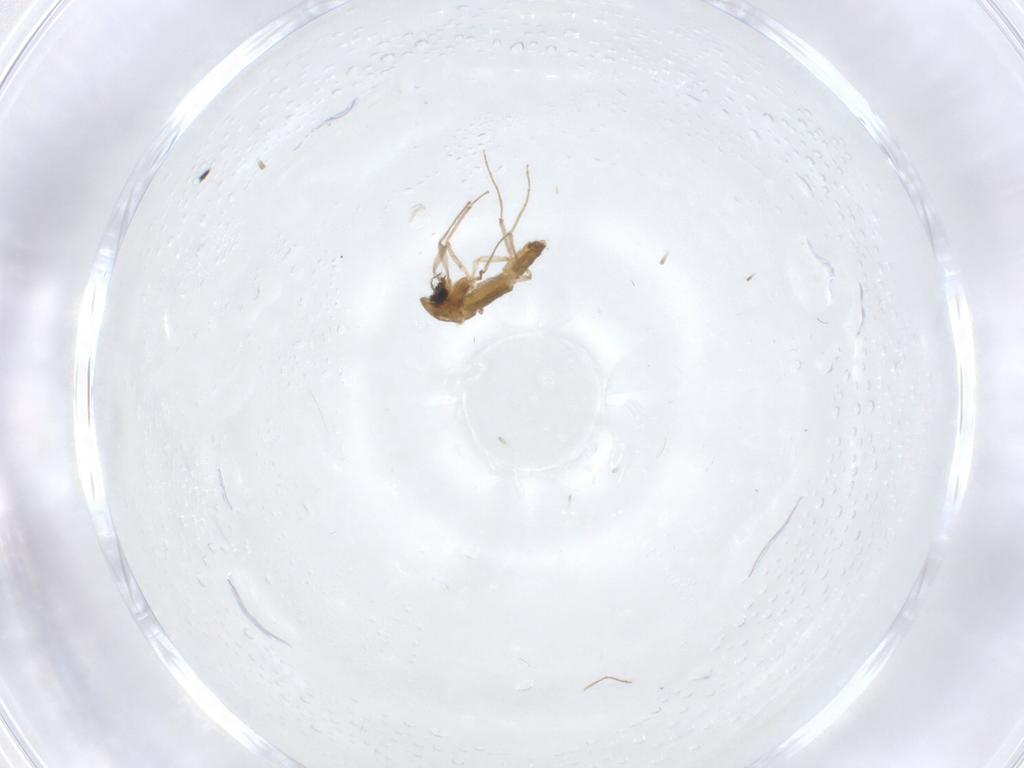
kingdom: Animalia
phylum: Arthropoda
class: Insecta
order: Diptera
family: Chironomidae
